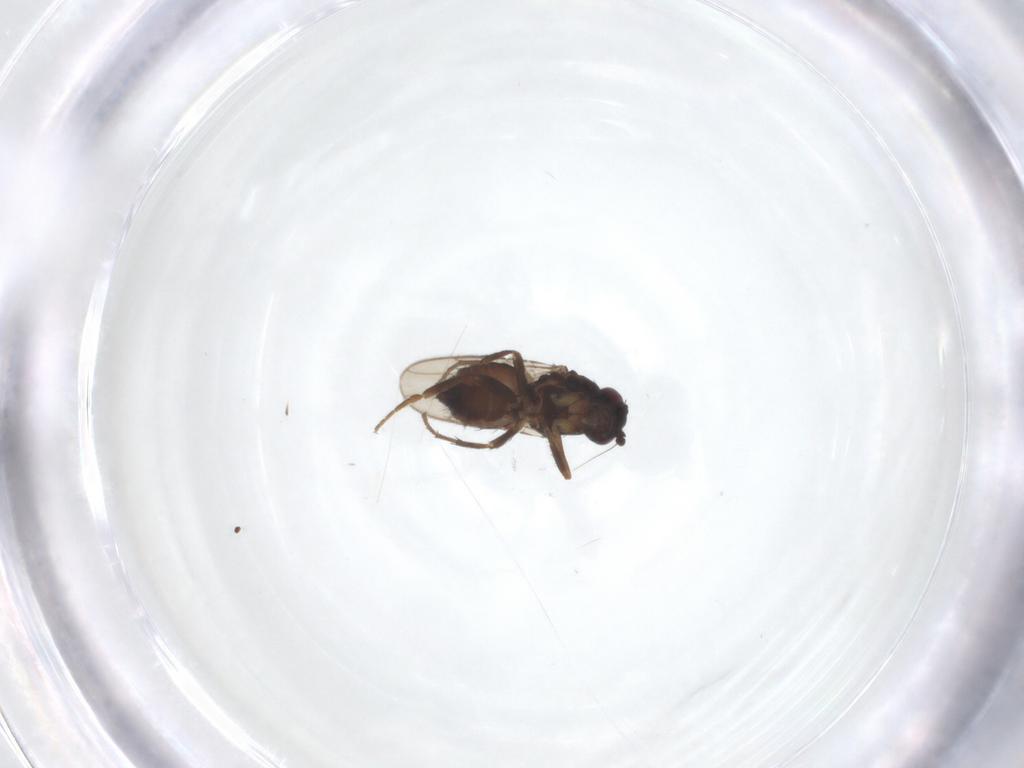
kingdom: Animalia
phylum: Arthropoda
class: Insecta
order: Diptera
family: Sphaeroceridae
